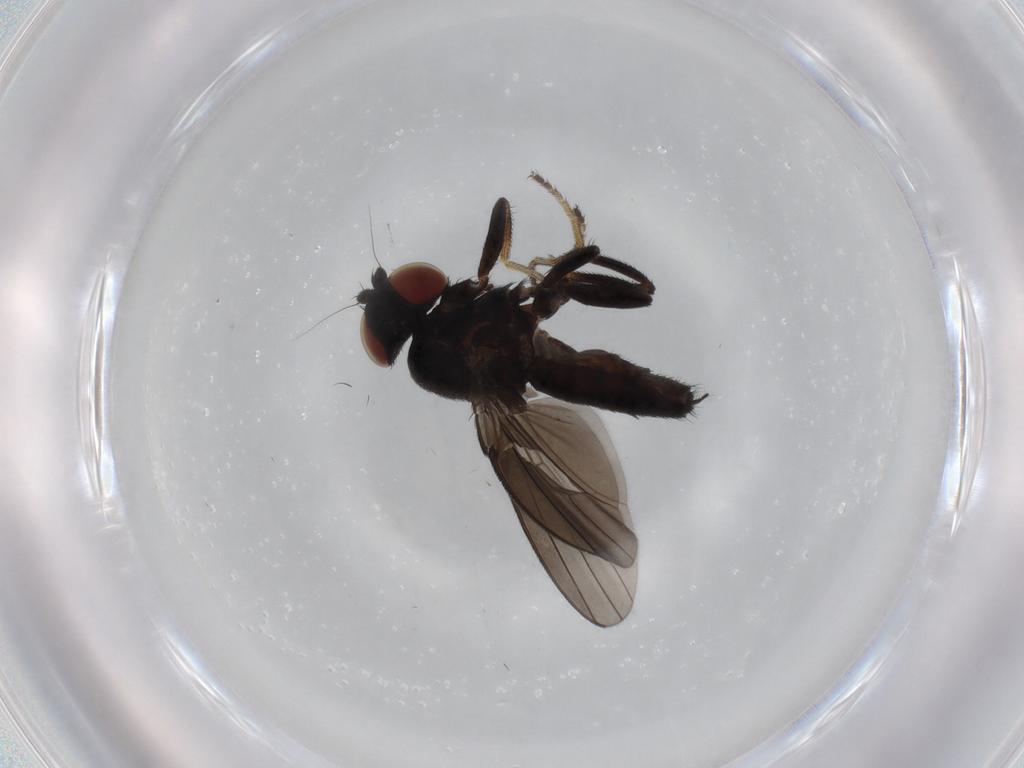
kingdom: Animalia
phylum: Arthropoda
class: Insecta
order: Diptera
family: Milichiidae
